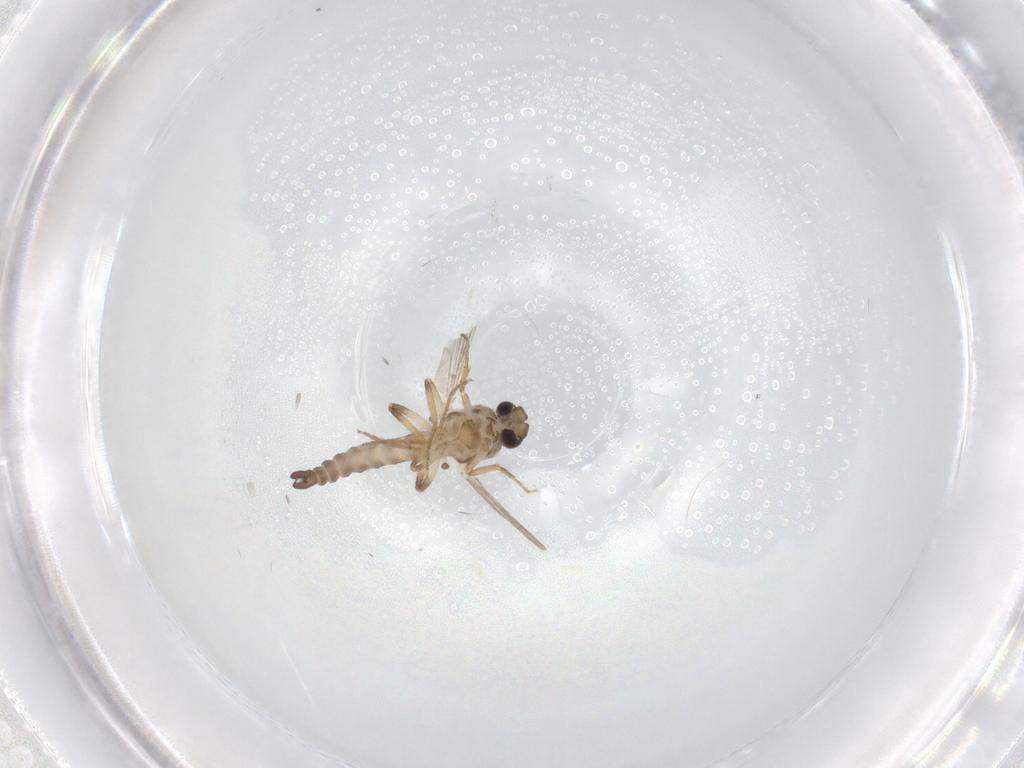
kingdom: Animalia
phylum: Arthropoda
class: Insecta
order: Diptera
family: Ceratopogonidae
